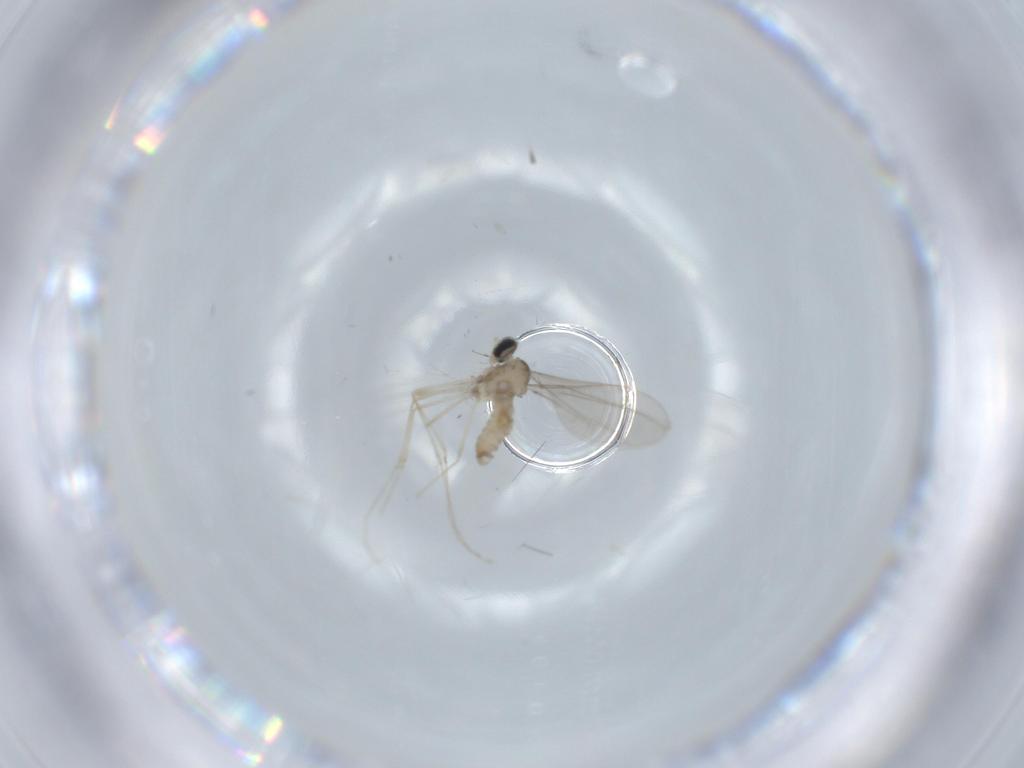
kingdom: Animalia
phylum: Arthropoda
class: Insecta
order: Diptera
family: Cecidomyiidae
